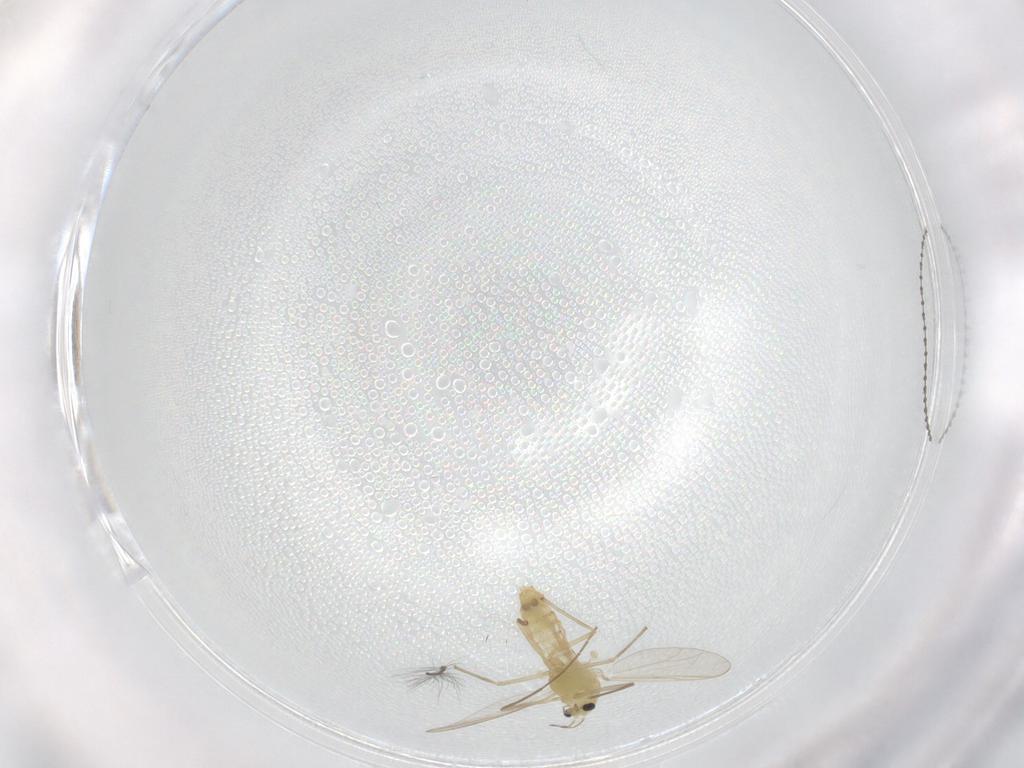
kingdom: Animalia
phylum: Arthropoda
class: Insecta
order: Diptera
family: Chironomidae
